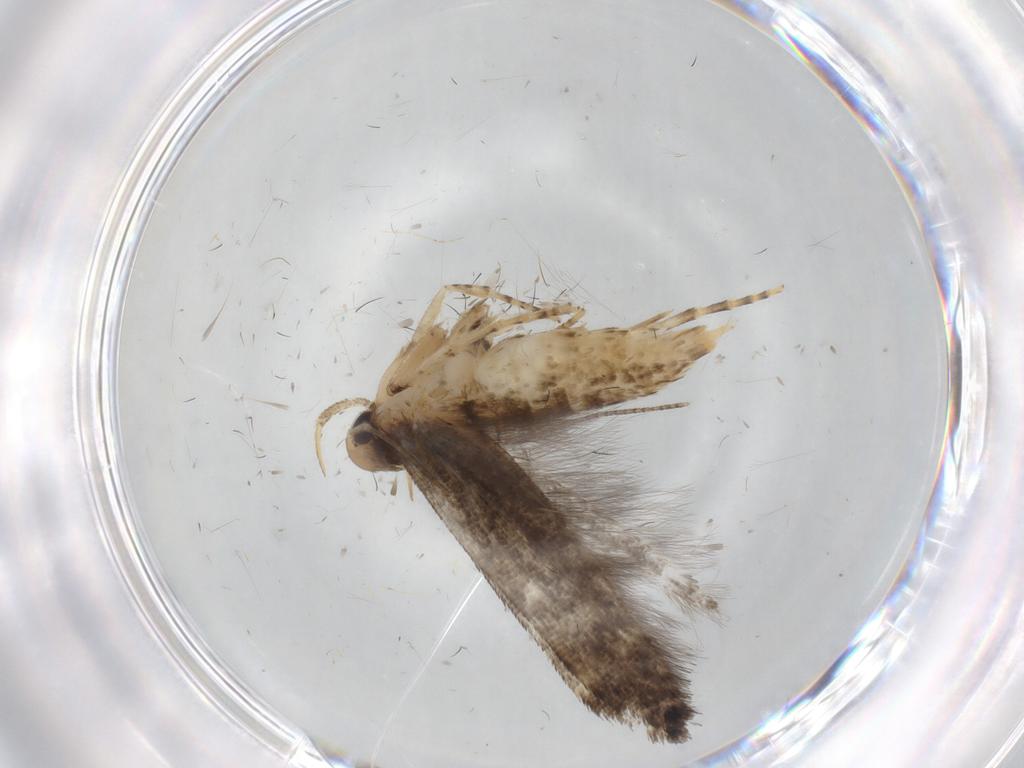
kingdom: Animalia
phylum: Arthropoda
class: Insecta
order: Lepidoptera
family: Cosmopterigidae
